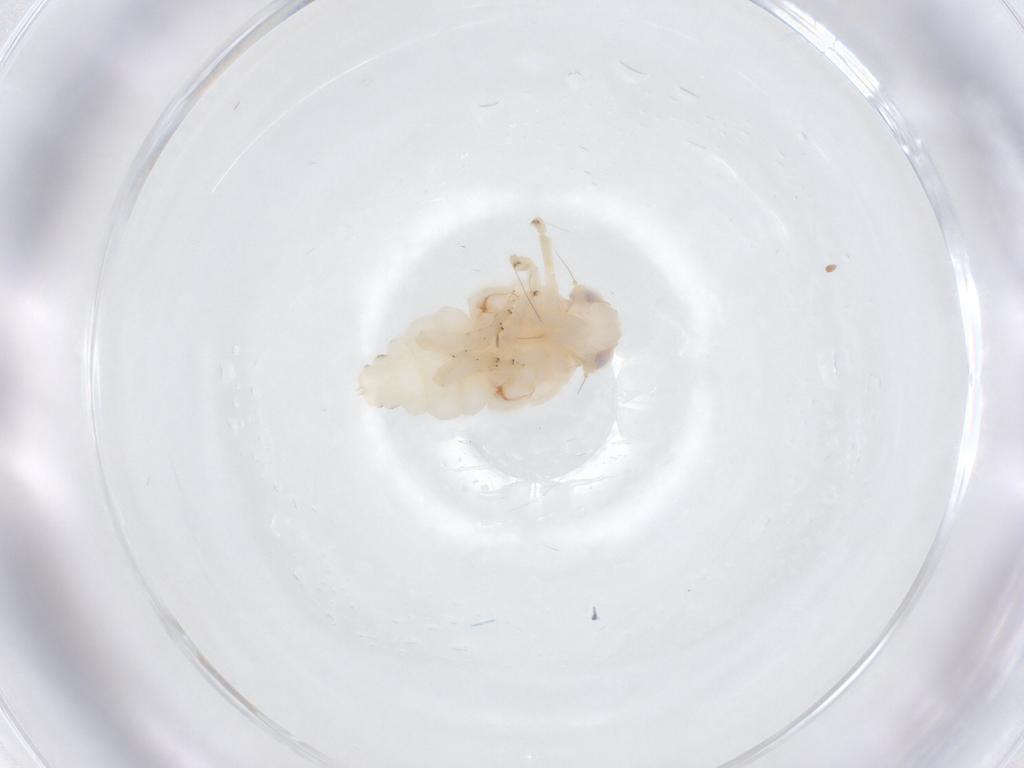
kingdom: Animalia
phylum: Arthropoda
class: Insecta
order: Hemiptera
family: Nogodinidae
